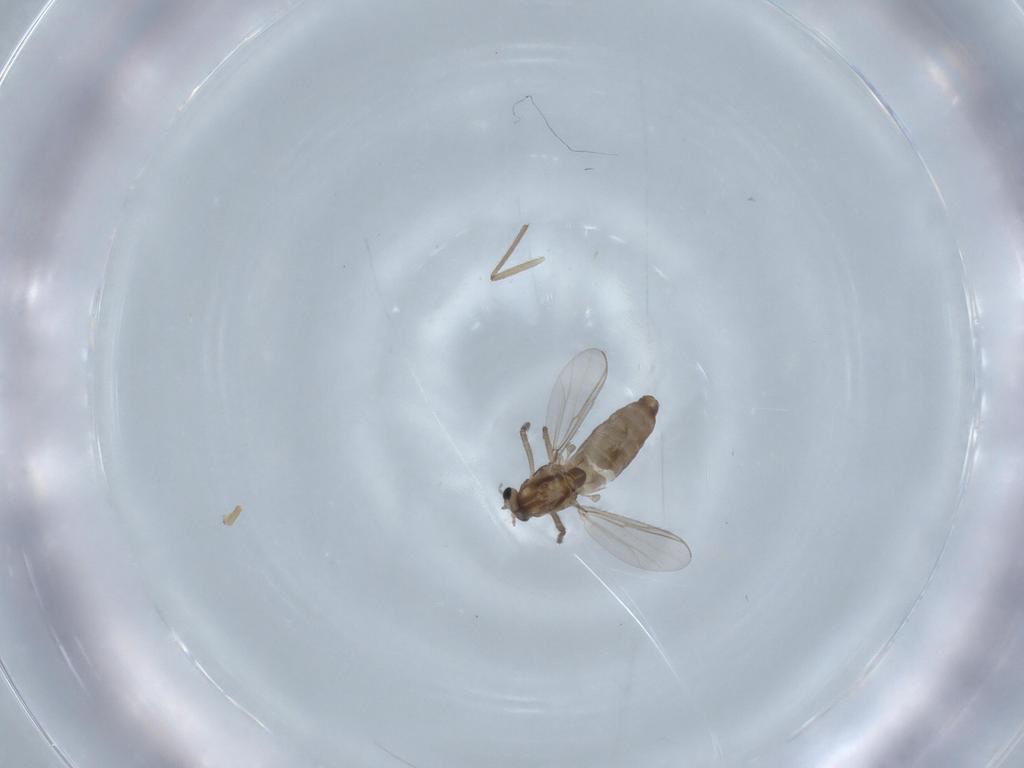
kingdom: Animalia
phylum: Arthropoda
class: Insecta
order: Diptera
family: Chironomidae
